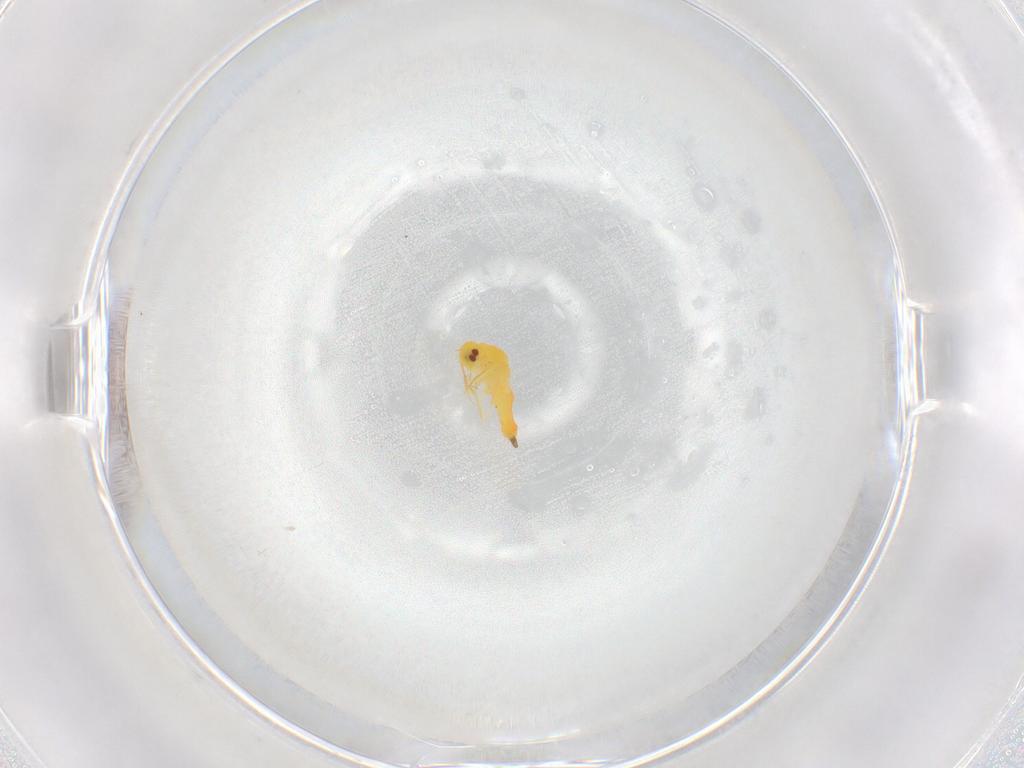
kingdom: Animalia
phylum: Arthropoda
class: Insecta
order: Hemiptera
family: Aleyrodidae
